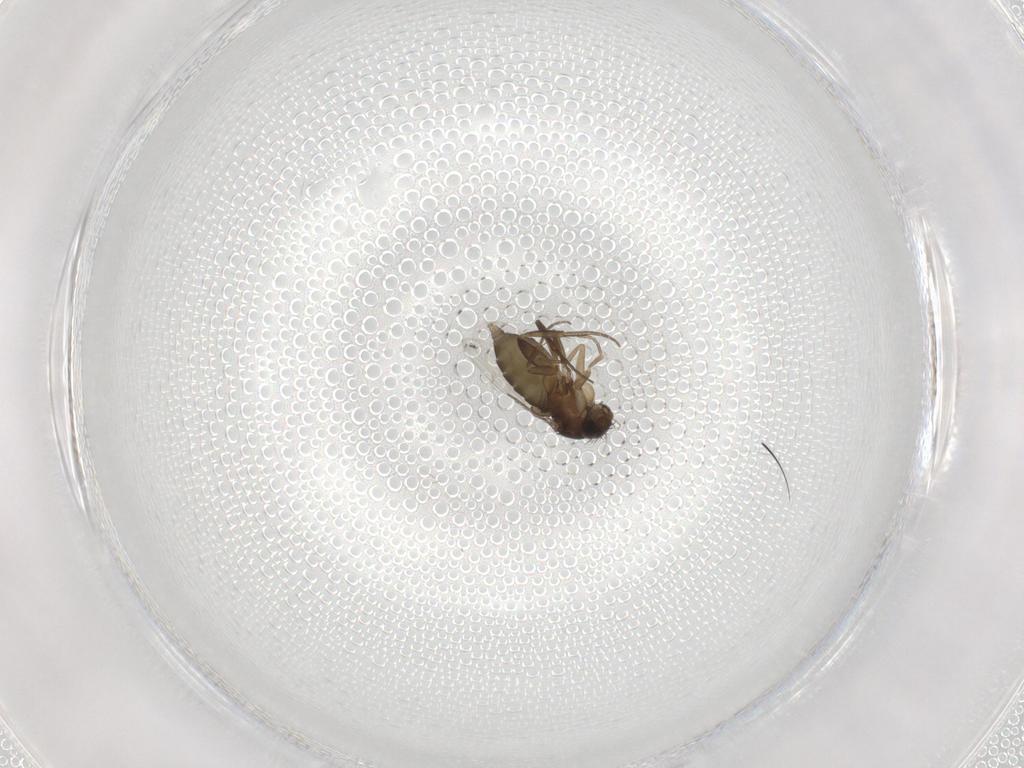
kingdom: Animalia
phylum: Arthropoda
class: Insecta
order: Diptera
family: Phoridae
